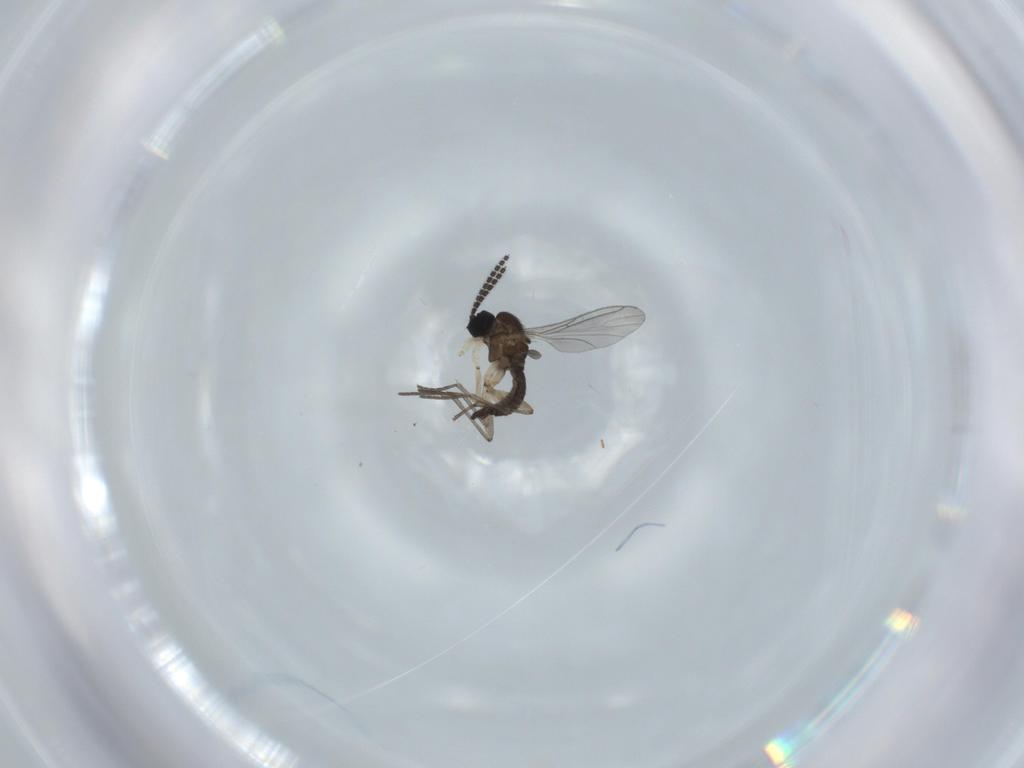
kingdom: Animalia
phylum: Arthropoda
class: Insecta
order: Diptera
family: Sciaridae
